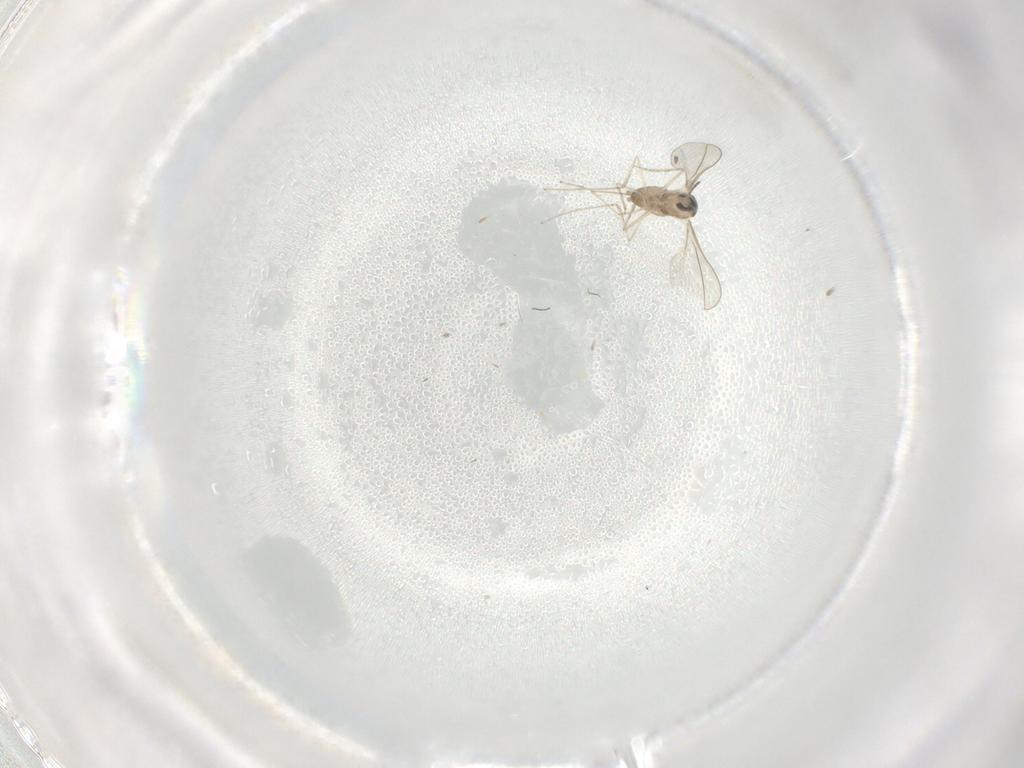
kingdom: Animalia
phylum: Arthropoda
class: Insecta
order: Diptera
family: Cecidomyiidae
